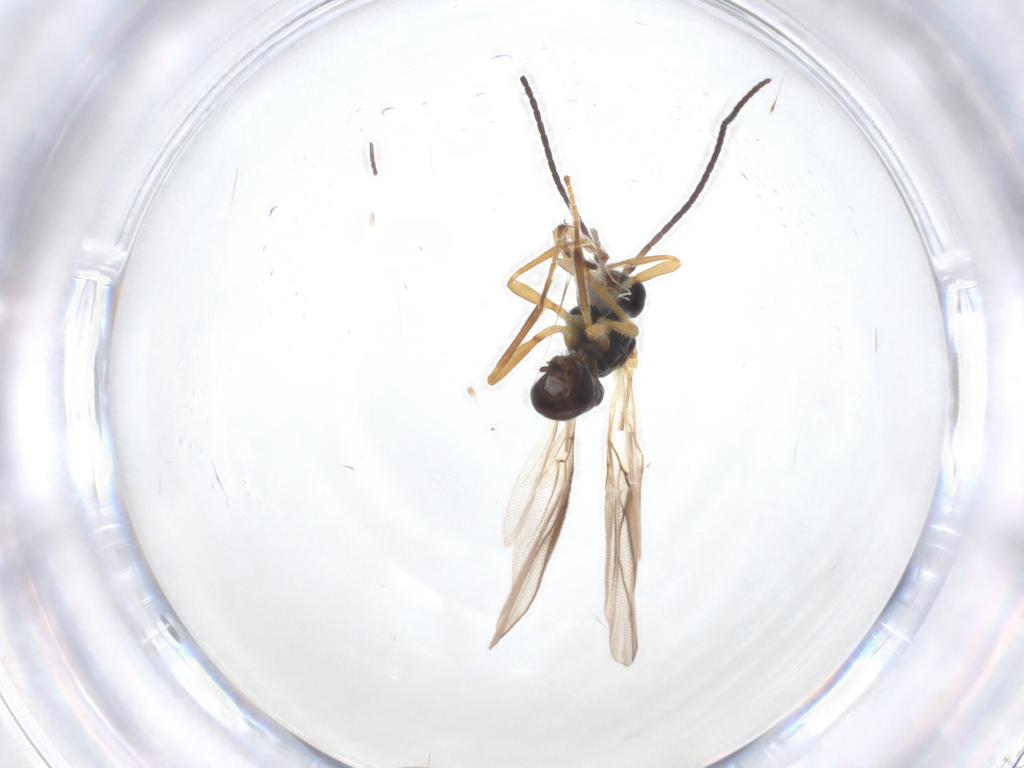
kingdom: Animalia
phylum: Arthropoda
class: Insecta
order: Hymenoptera
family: Braconidae
